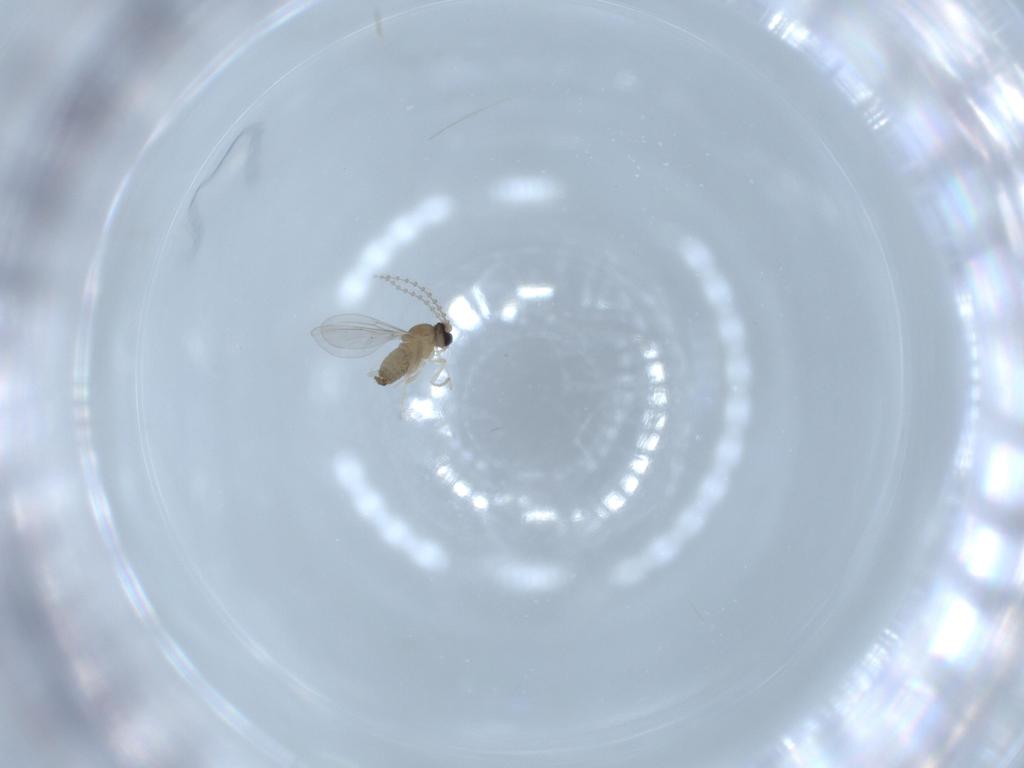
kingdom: Animalia
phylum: Arthropoda
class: Insecta
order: Diptera
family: Cecidomyiidae
